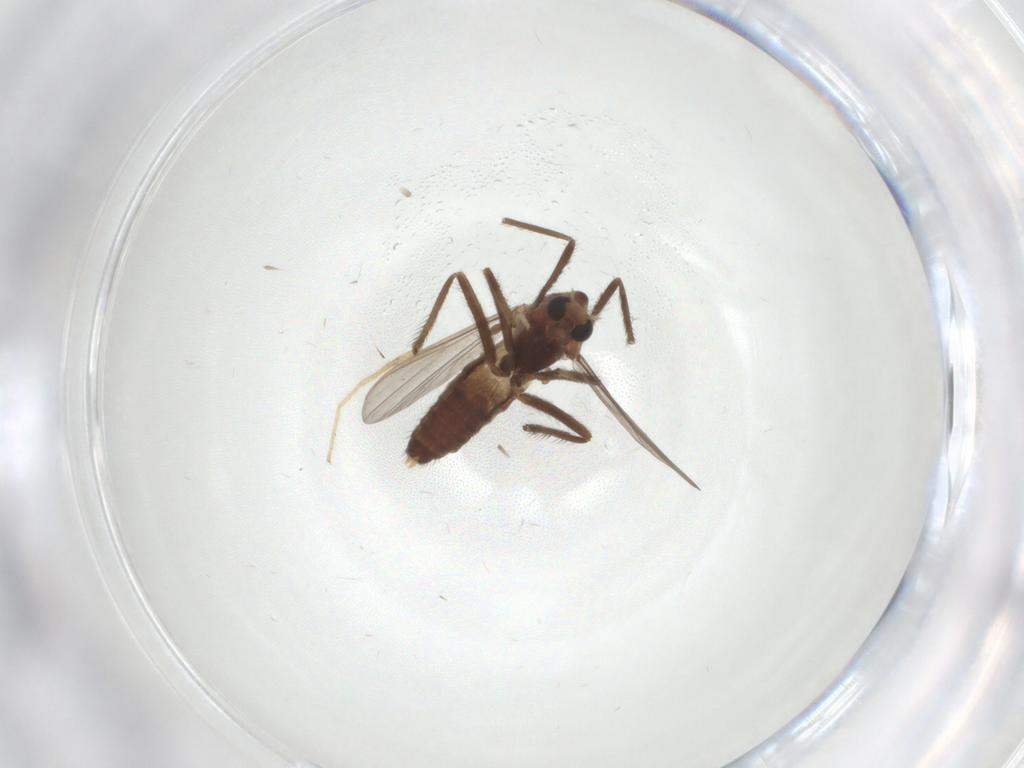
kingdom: Animalia
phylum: Arthropoda
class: Insecta
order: Diptera
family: Chironomidae
